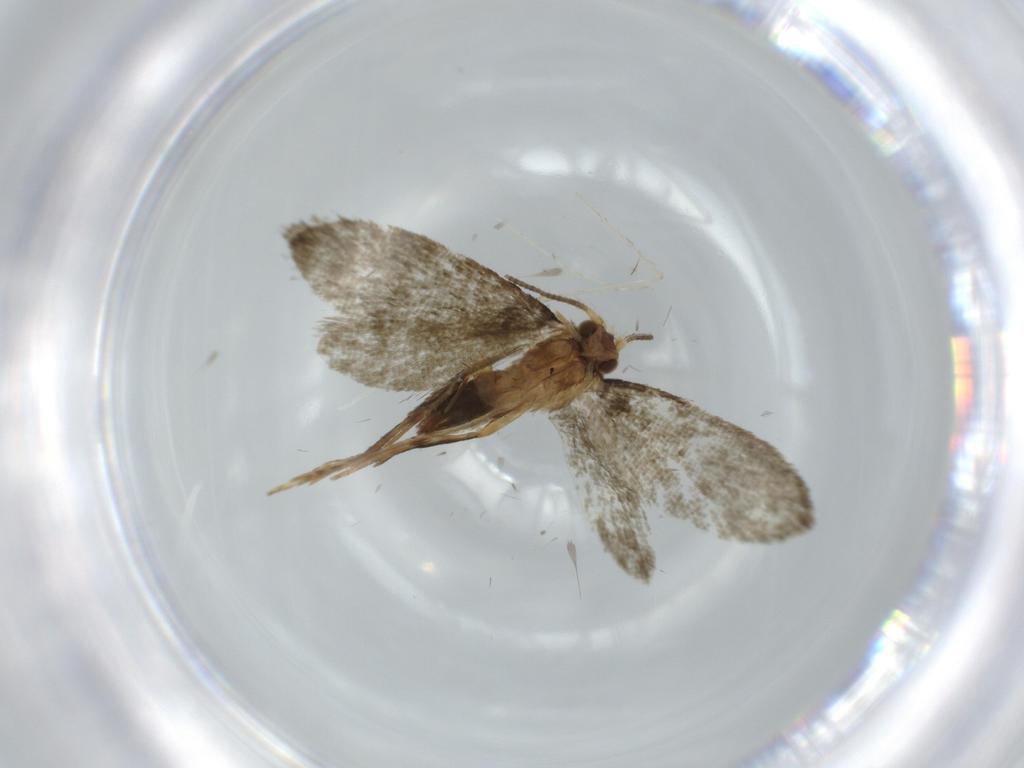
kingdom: Animalia
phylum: Arthropoda
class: Insecta
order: Lepidoptera
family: Tineidae
